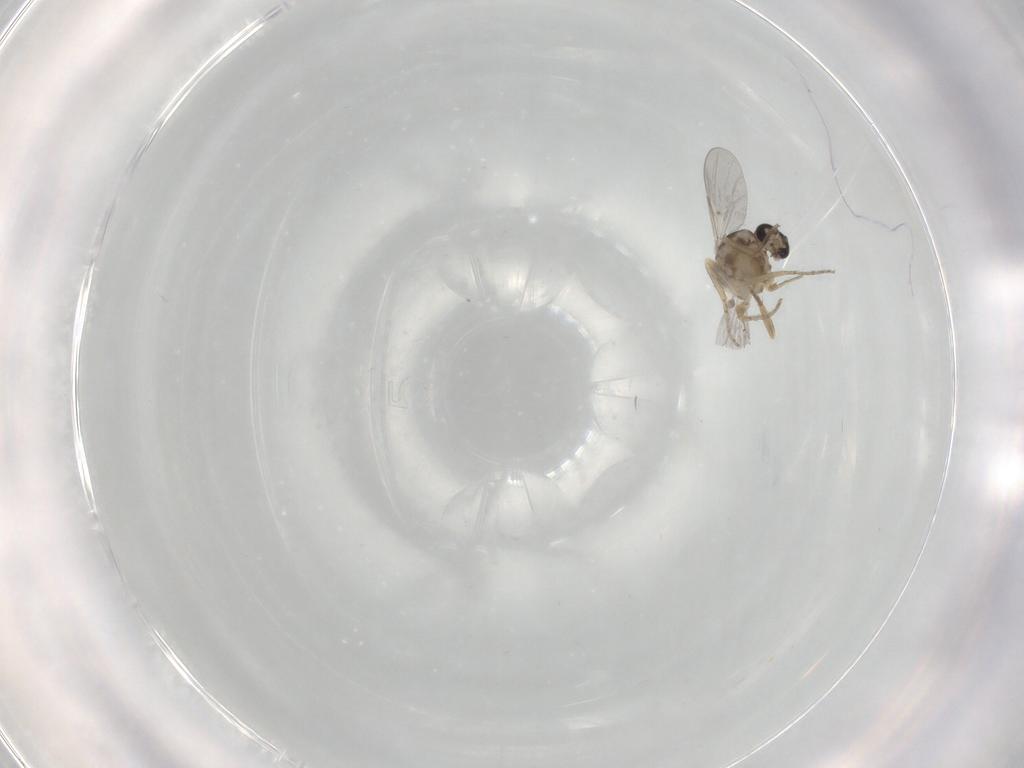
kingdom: Animalia
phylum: Arthropoda
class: Insecta
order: Diptera
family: Ceratopogonidae
